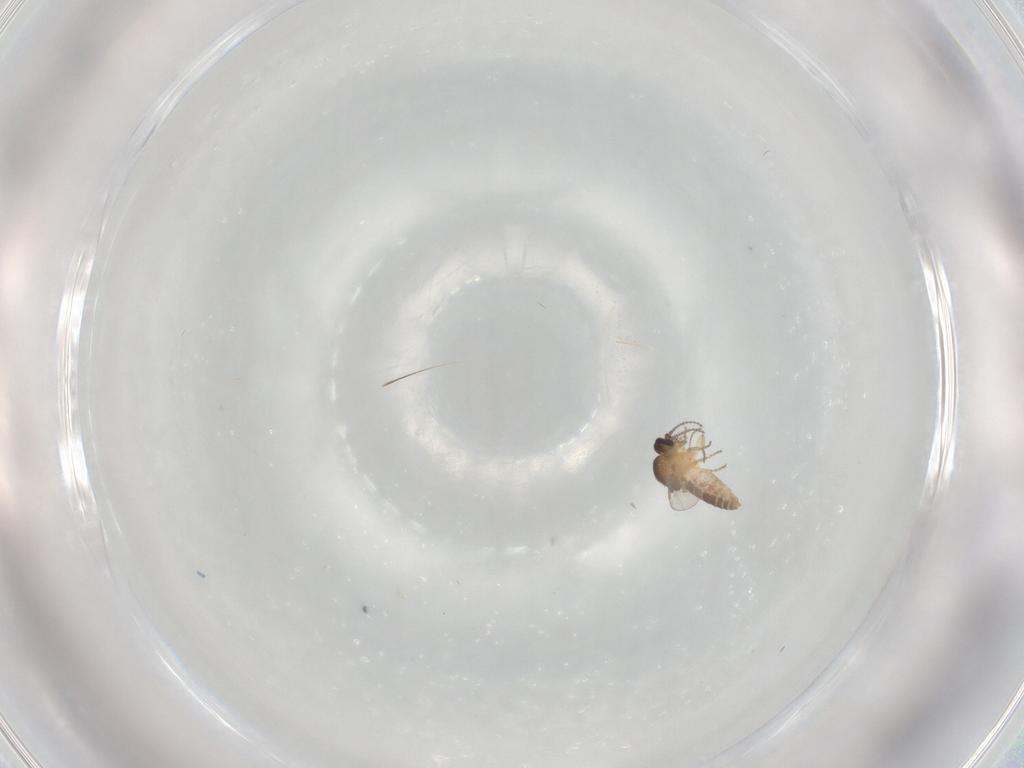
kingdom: Animalia
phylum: Arthropoda
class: Insecta
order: Diptera
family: Ceratopogonidae
